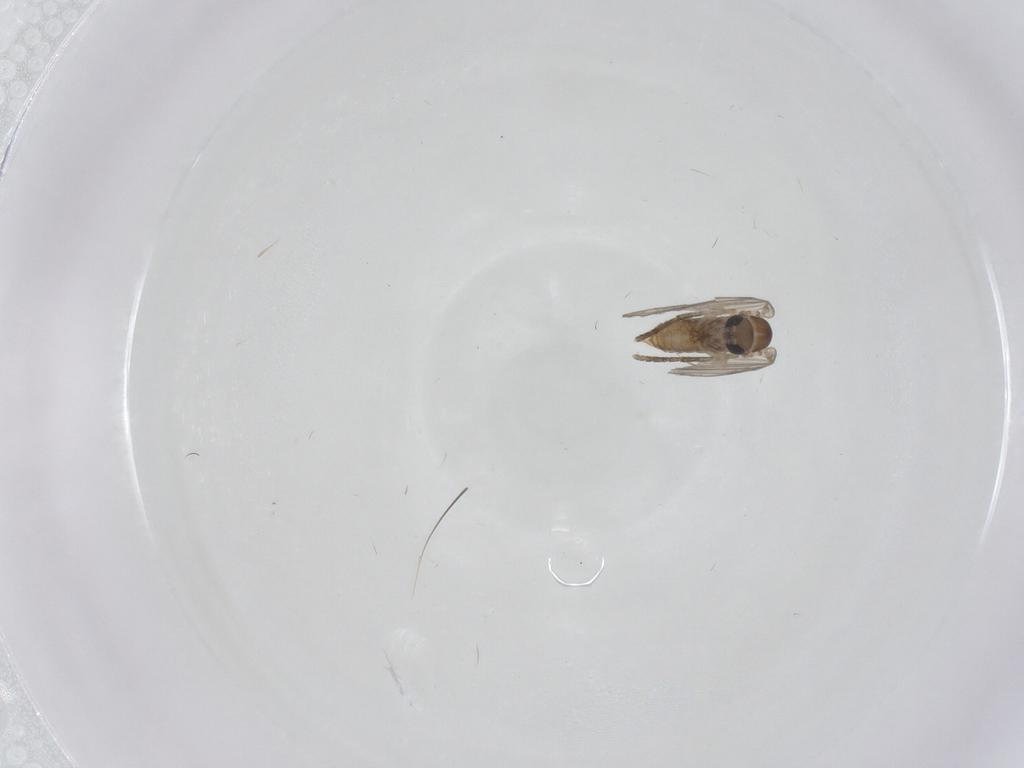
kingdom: Animalia
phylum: Arthropoda
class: Insecta
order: Diptera
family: Phoridae
